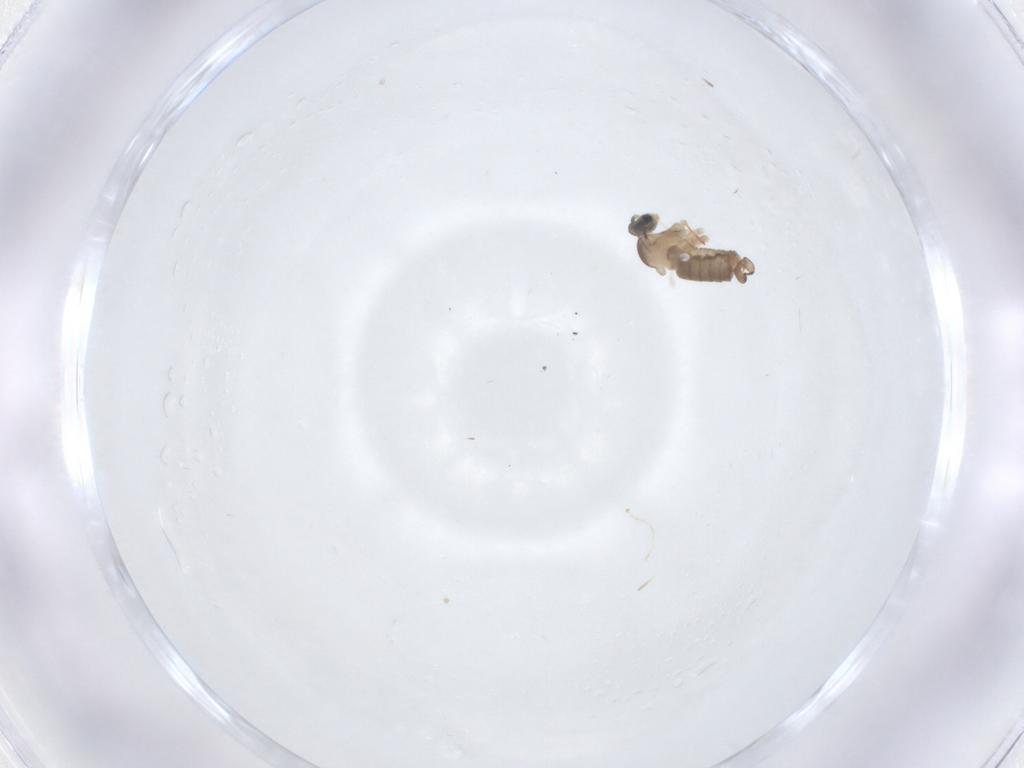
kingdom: Animalia
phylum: Arthropoda
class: Insecta
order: Diptera
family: Cecidomyiidae
